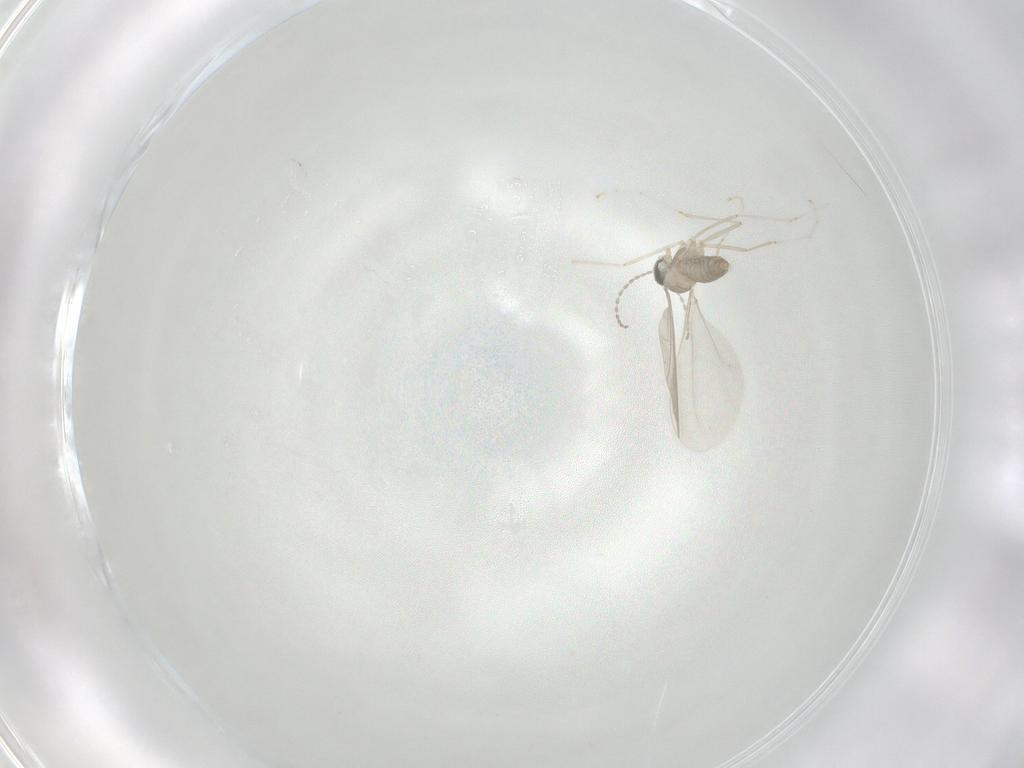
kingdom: Animalia
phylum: Arthropoda
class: Insecta
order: Diptera
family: Cecidomyiidae
